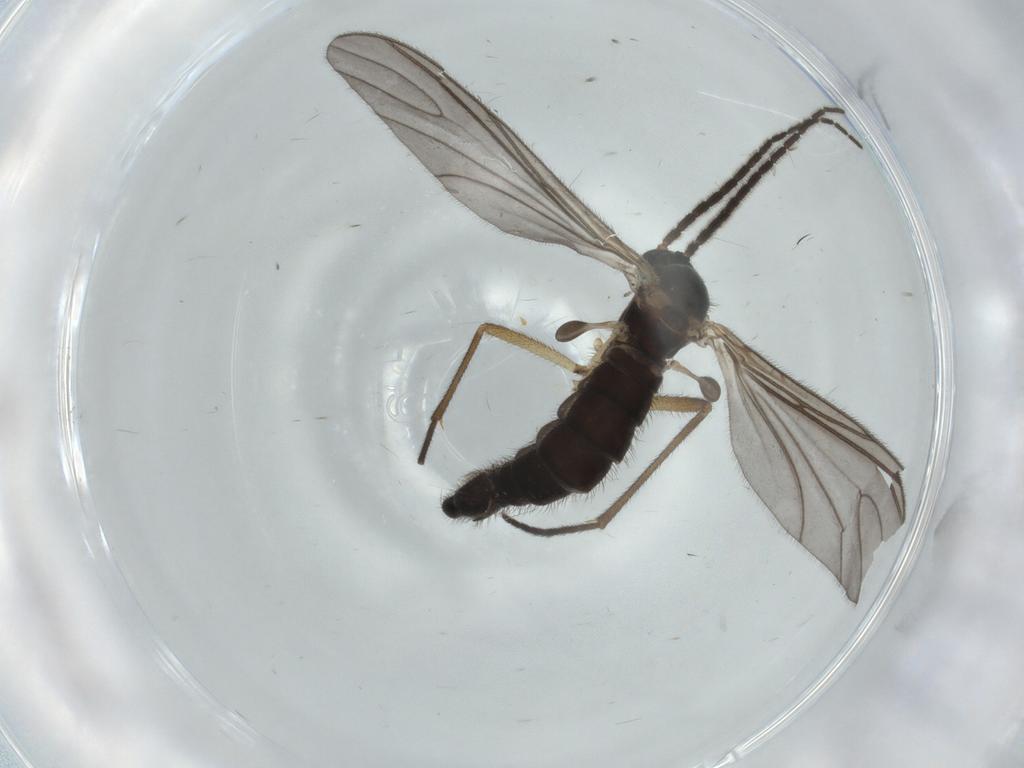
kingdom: Animalia
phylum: Arthropoda
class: Insecta
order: Diptera
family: Sciaridae
